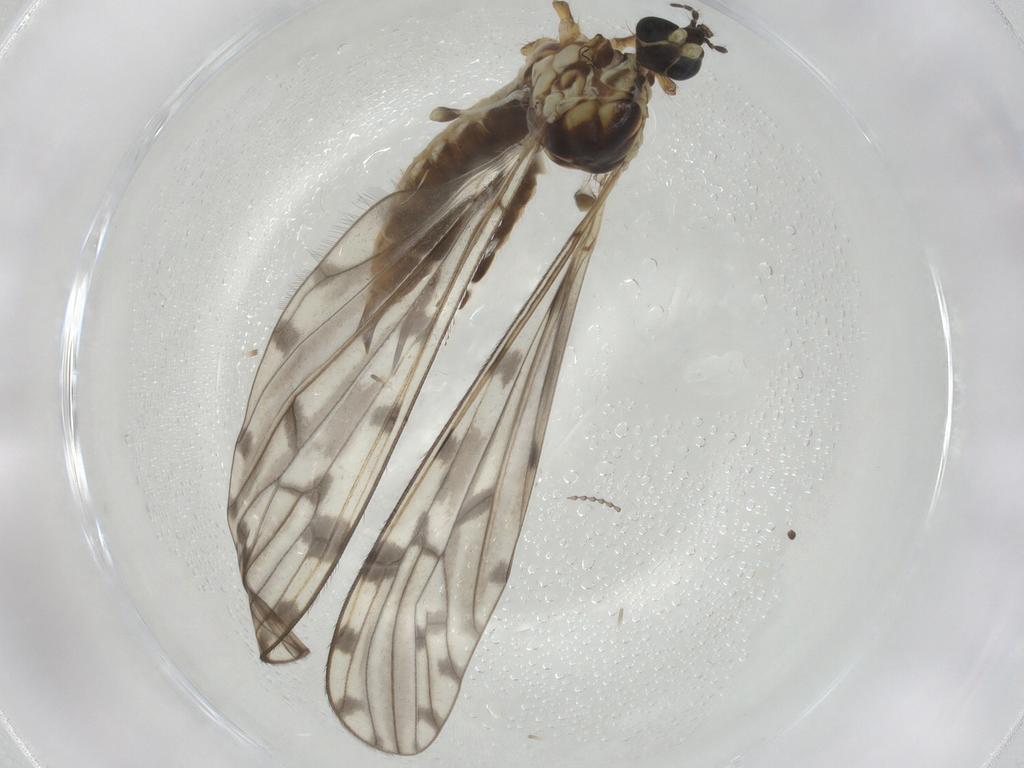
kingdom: Animalia
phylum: Arthropoda
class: Insecta
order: Diptera
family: Limoniidae
